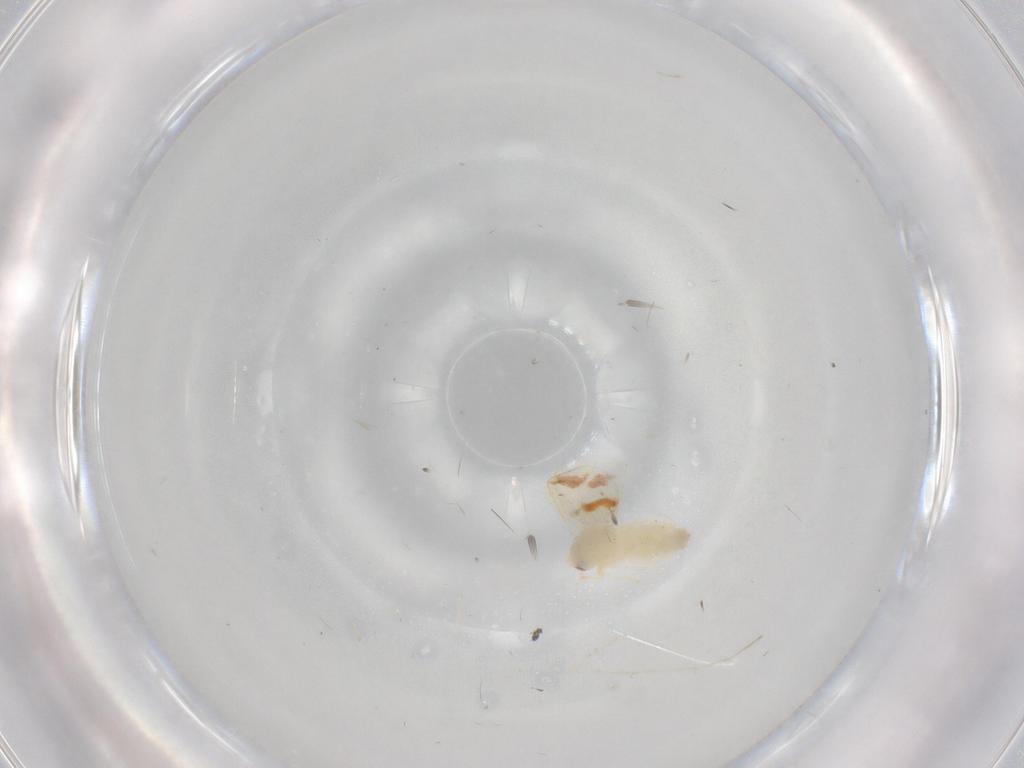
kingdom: Animalia
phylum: Arthropoda
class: Insecta
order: Hemiptera
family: Aleyrodidae
